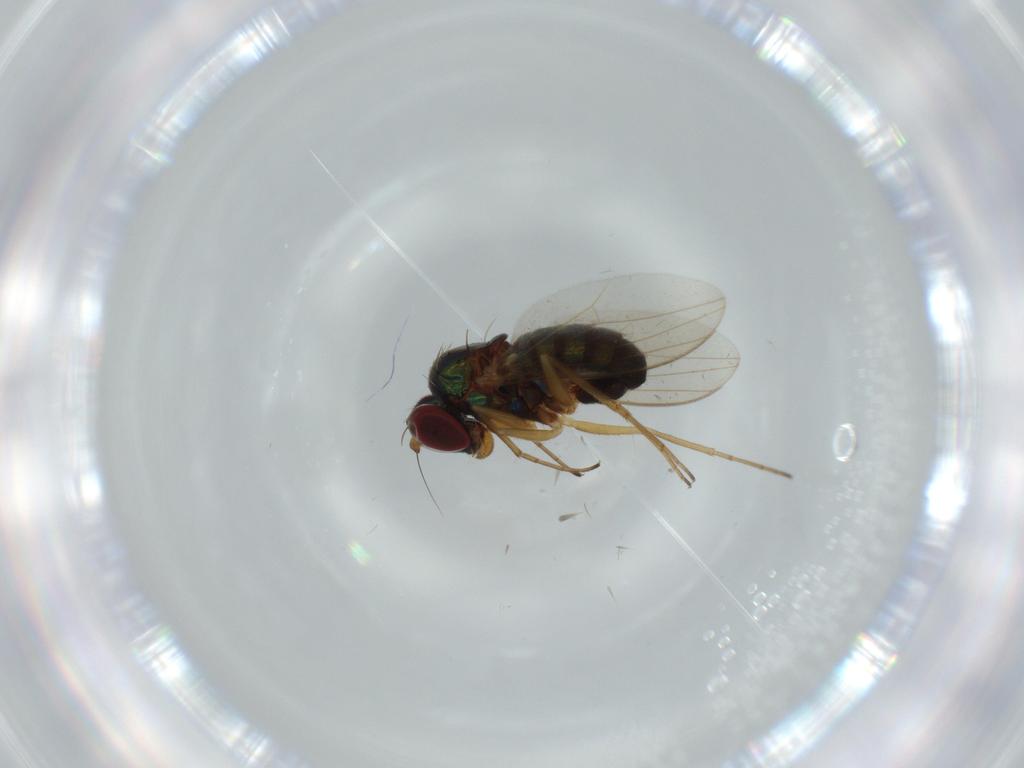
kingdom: Animalia
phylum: Arthropoda
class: Insecta
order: Diptera
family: Dolichopodidae
